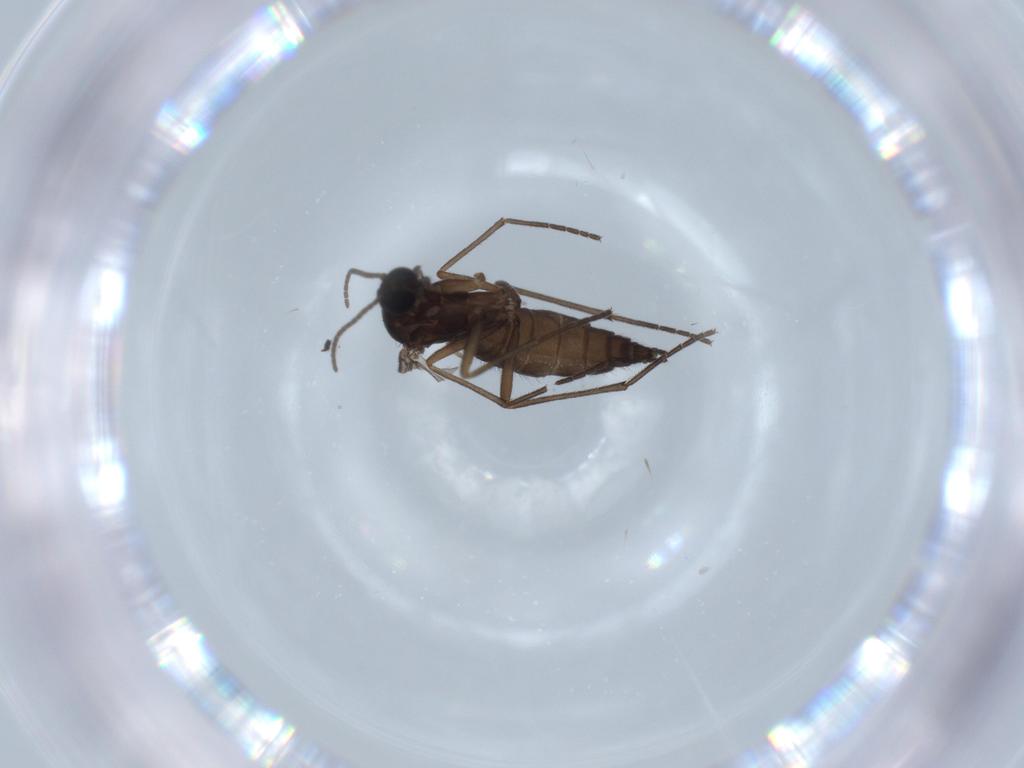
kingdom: Animalia
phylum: Arthropoda
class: Insecta
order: Diptera
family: Sciaridae
